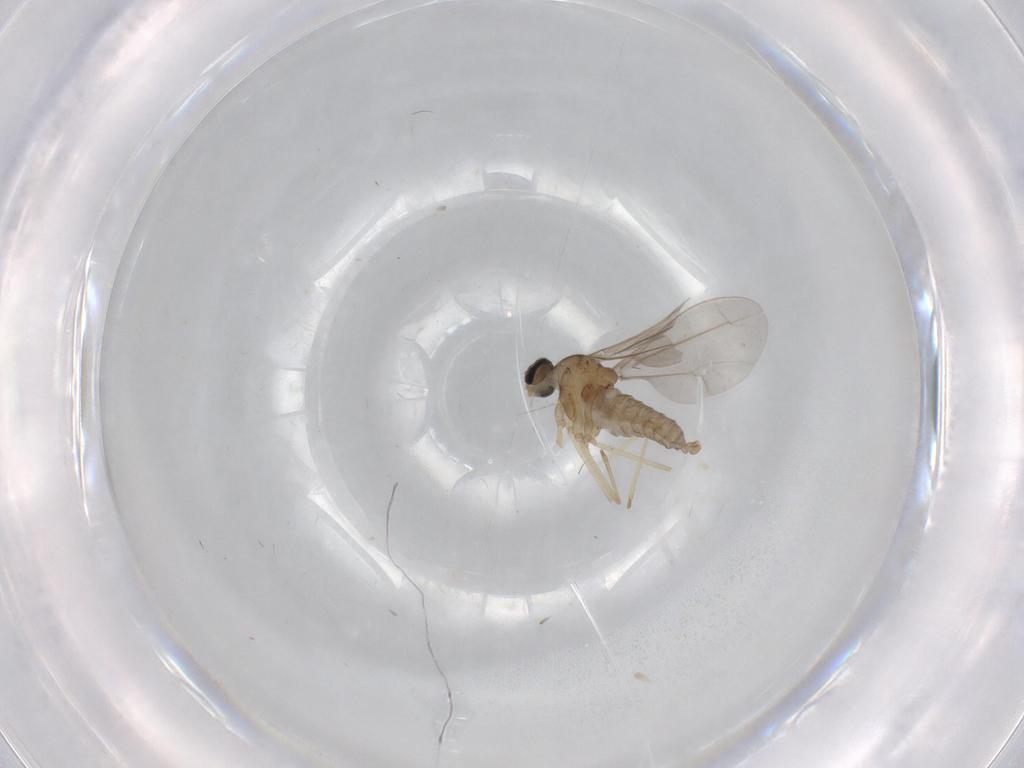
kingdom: Animalia
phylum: Arthropoda
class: Insecta
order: Diptera
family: Cecidomyiidae
